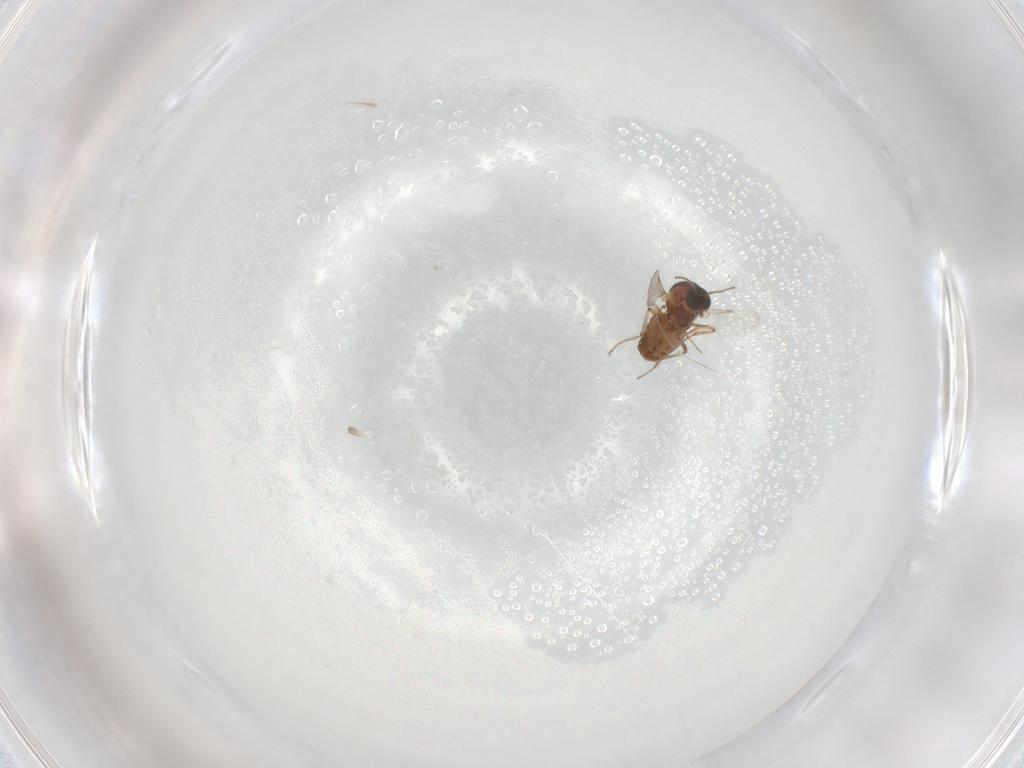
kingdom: Animalia
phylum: Arthropoda
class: Insecta
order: Diptera
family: Ceratopogonidae
